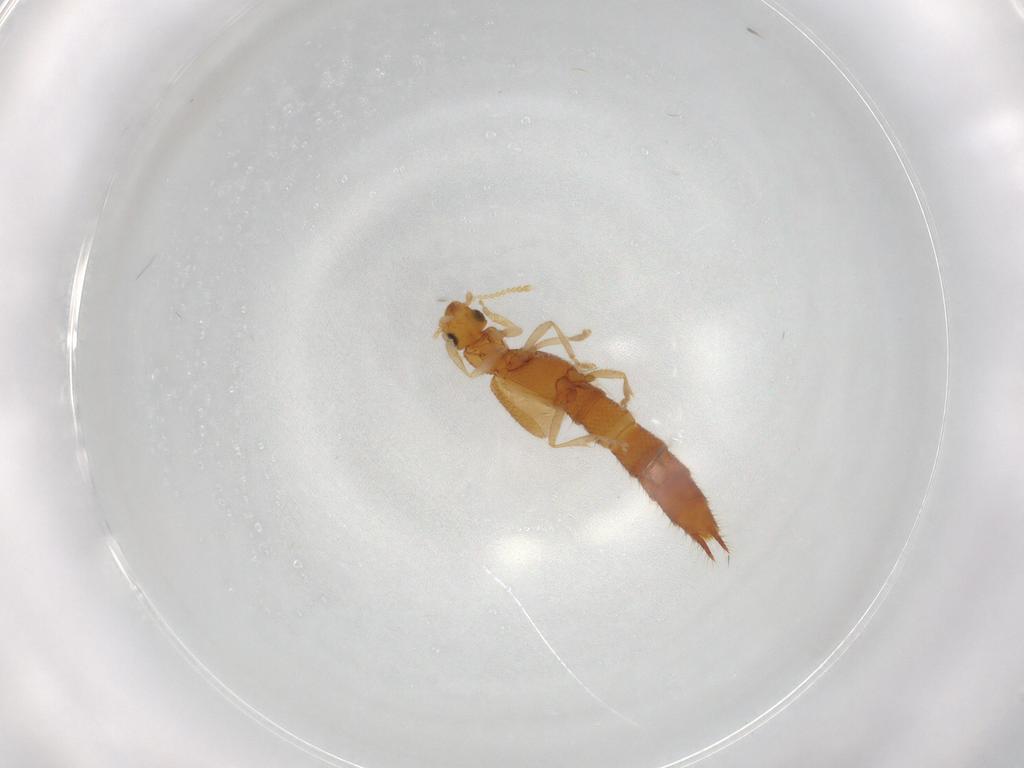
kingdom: Animalia
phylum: Arthropoda
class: Insecta
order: Coleoptera
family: Staphylinidae
